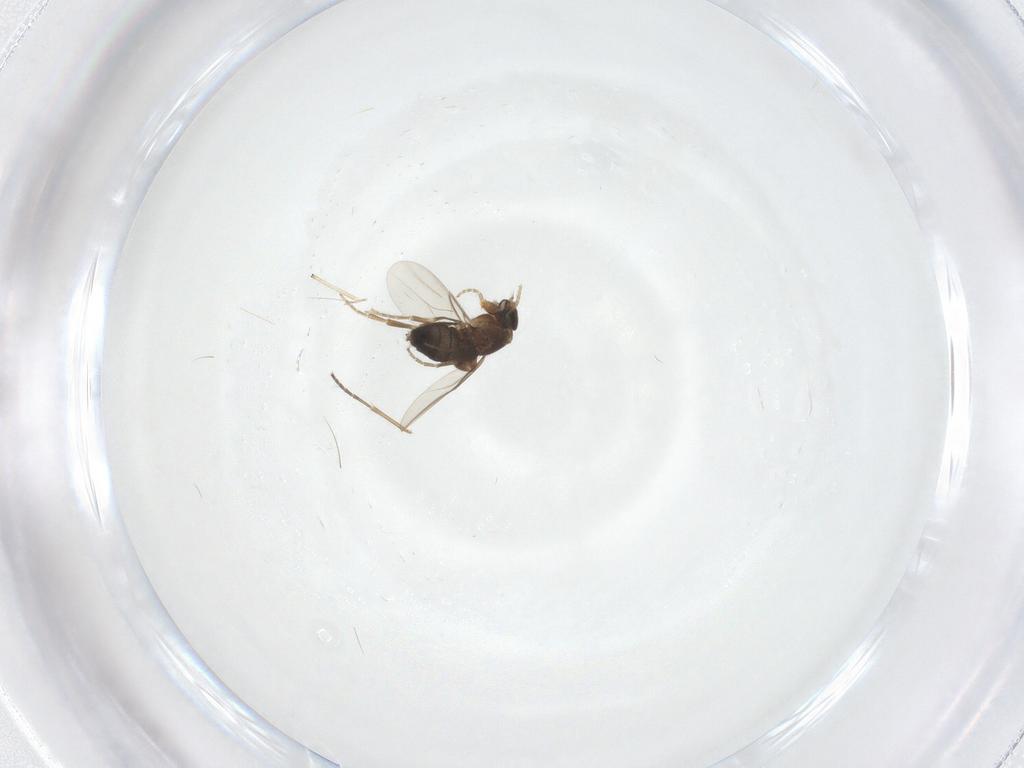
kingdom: Animalia
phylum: Arthropoda
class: Insecta
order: Diptera
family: Phoridae
